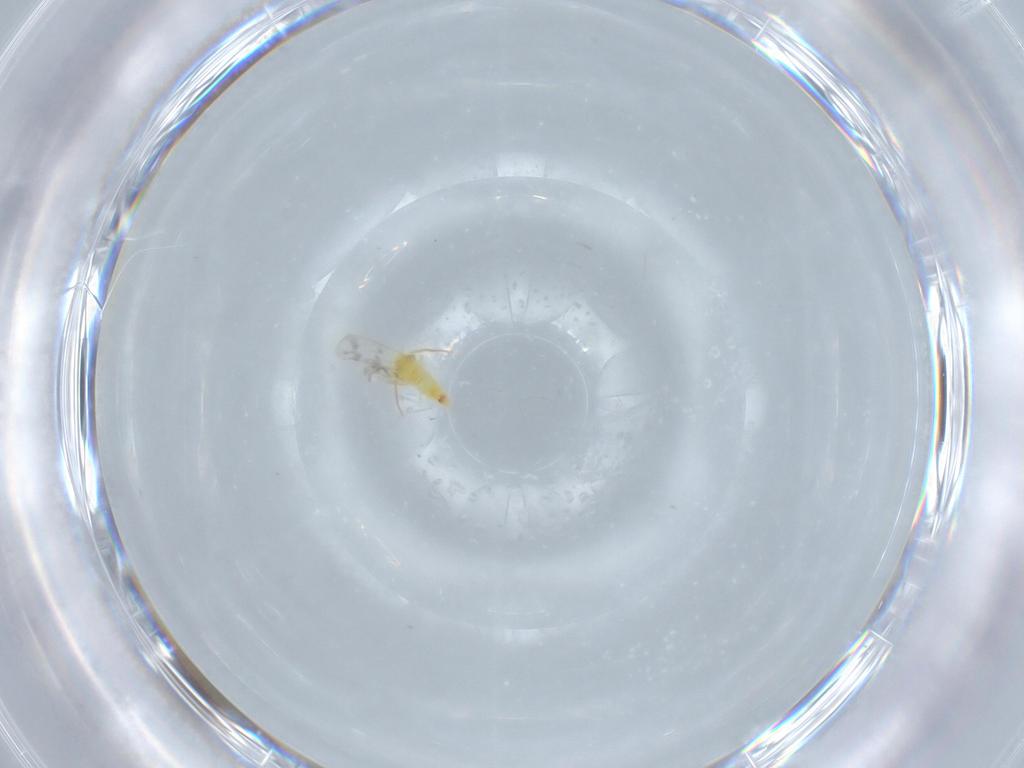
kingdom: Animalia
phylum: Arthropoda
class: Insecta
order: Hemiptera
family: Aleyrodidae
